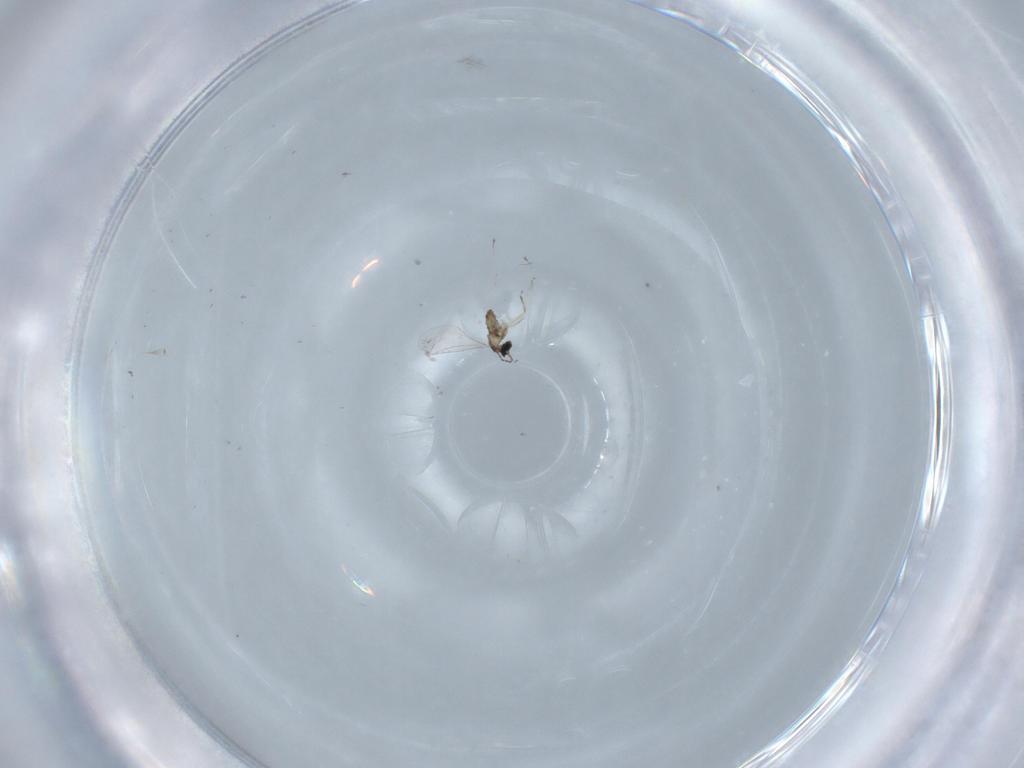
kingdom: Animalia
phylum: Arthropoda
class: Insecta
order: Diptera
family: Cecidomyiidae
